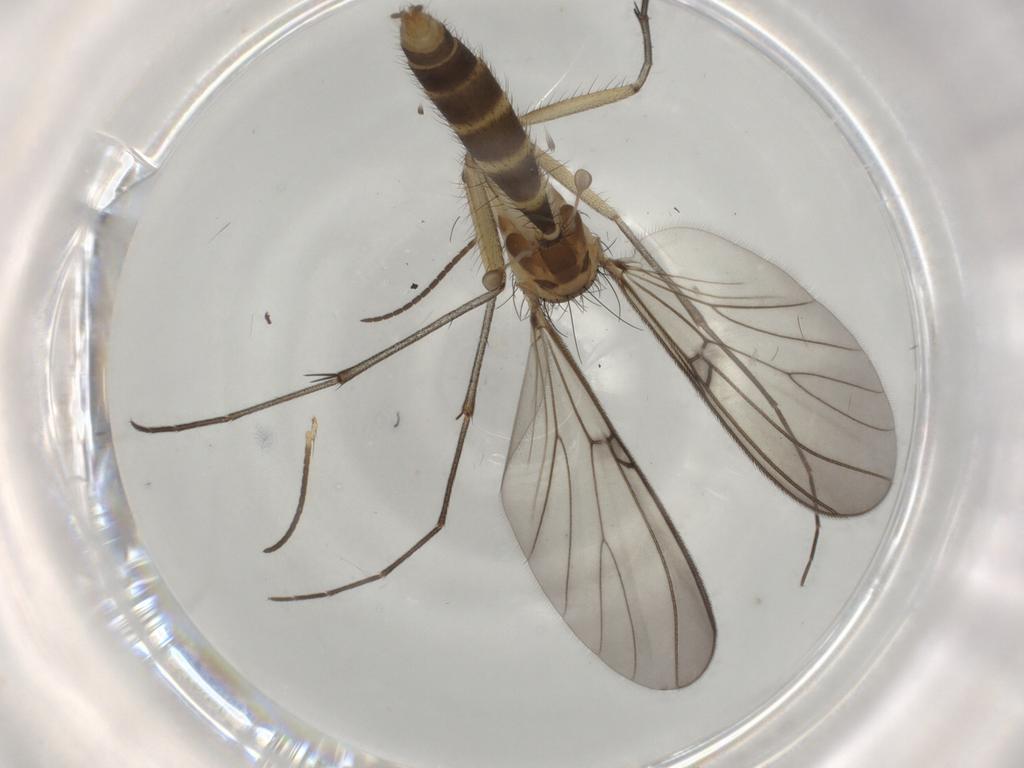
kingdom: Animalia
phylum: Arthropoda
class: Insecta
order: Diptera
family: Mycetophilidae
